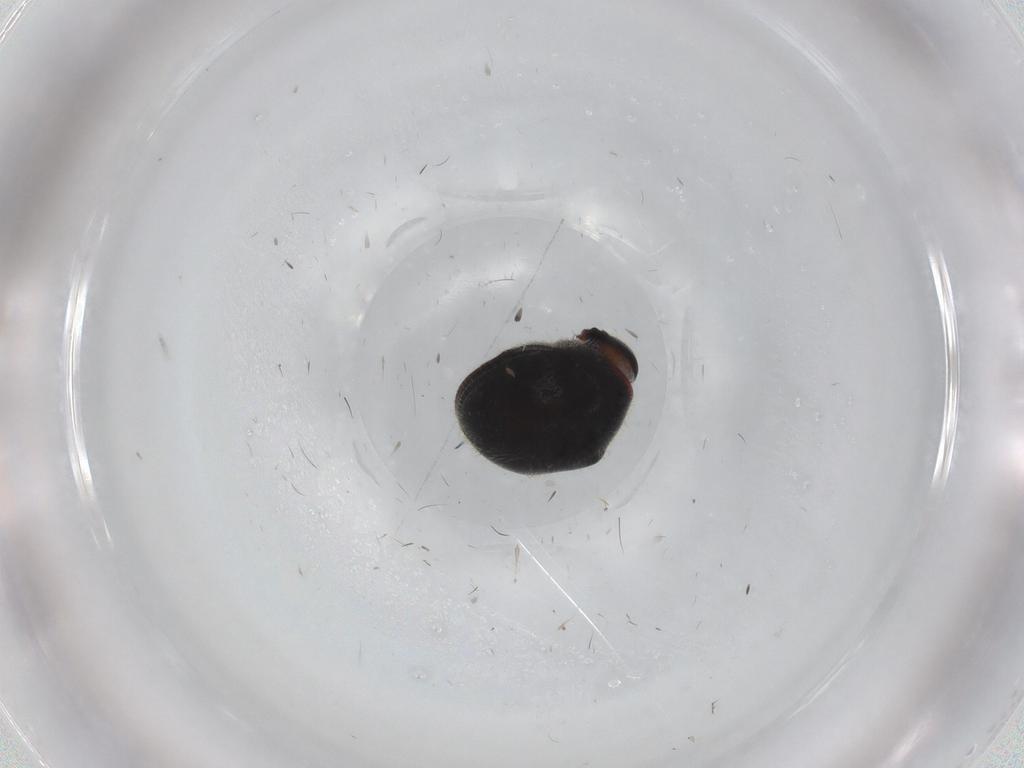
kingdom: Animalia
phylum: Arthropoda
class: Insecta
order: Coleoptera
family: Ptinidae
